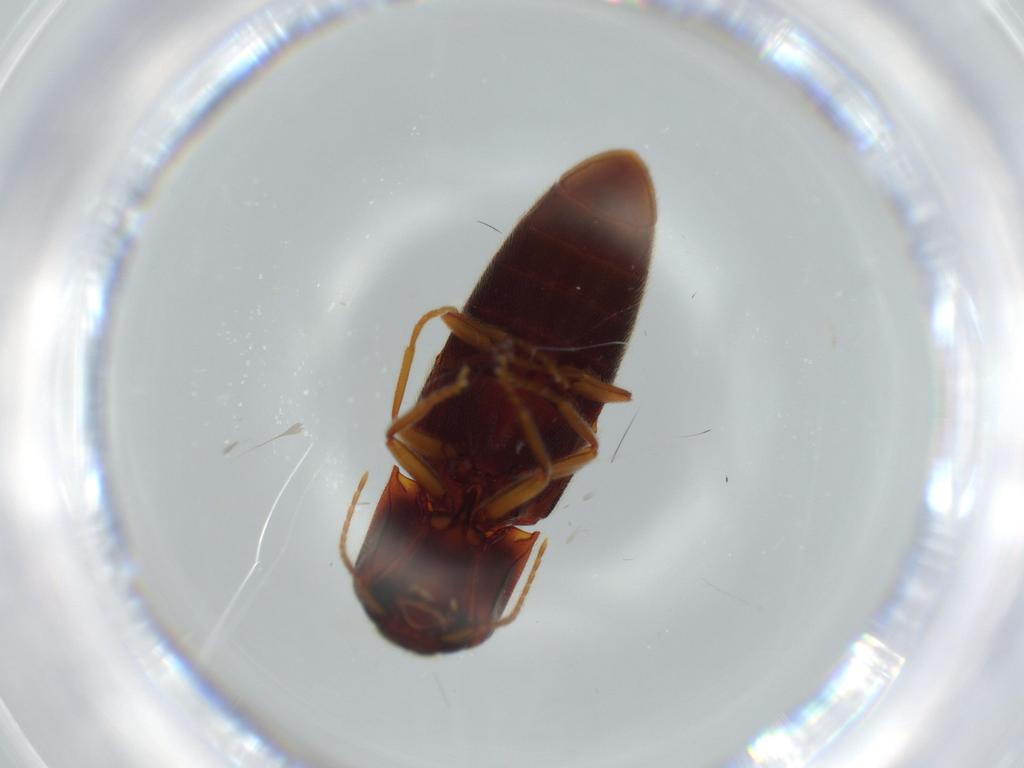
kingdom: Animalia
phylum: Arthropoda
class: Insecta
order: Coleoptera
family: Elateridae
